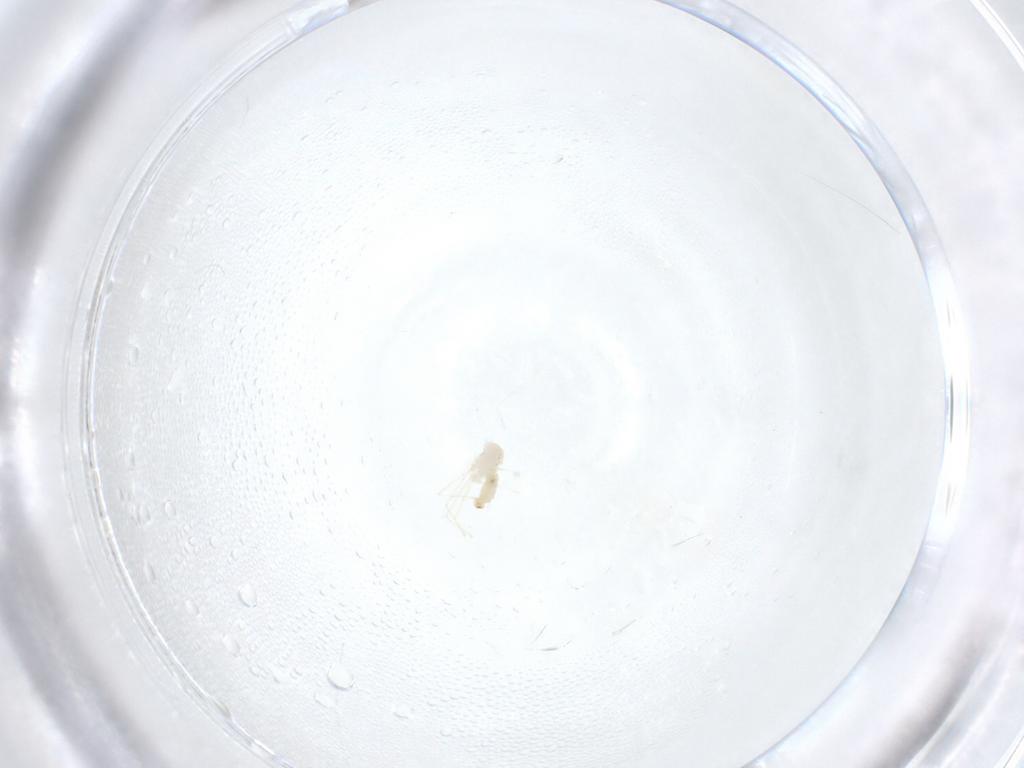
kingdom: Animalia
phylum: Arthropoda
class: Insecta
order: Diptera
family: Cecidomyiidae
